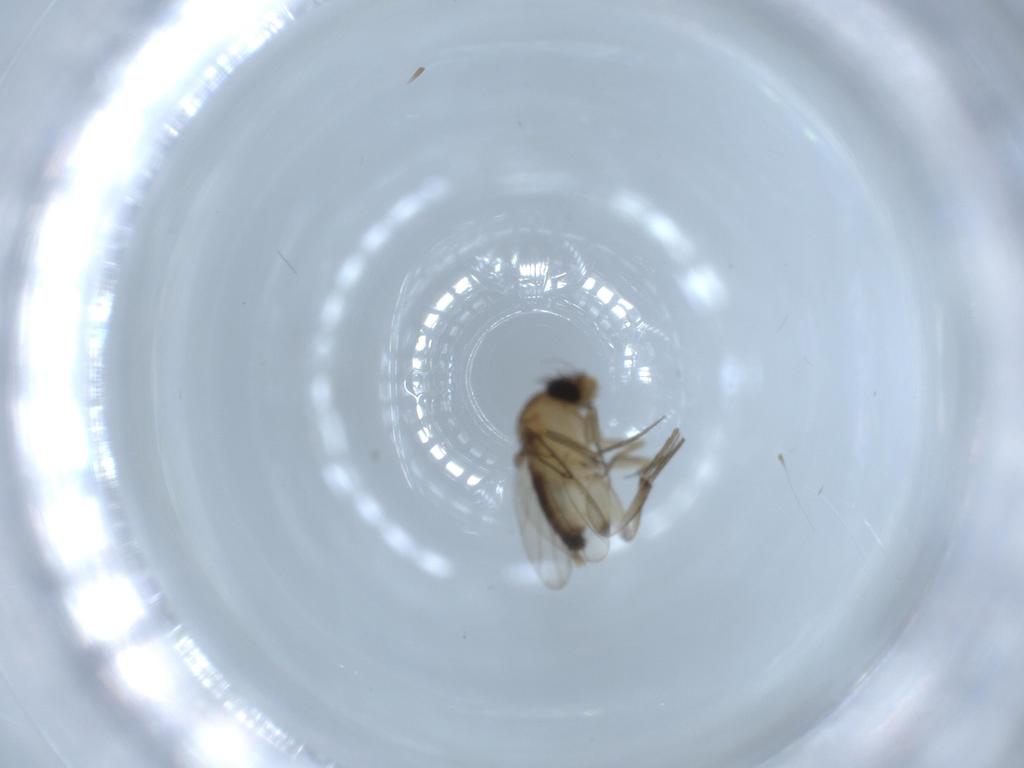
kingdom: Animalia
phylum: Arthropoda
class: Insecta
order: Diptera
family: Phoridae
